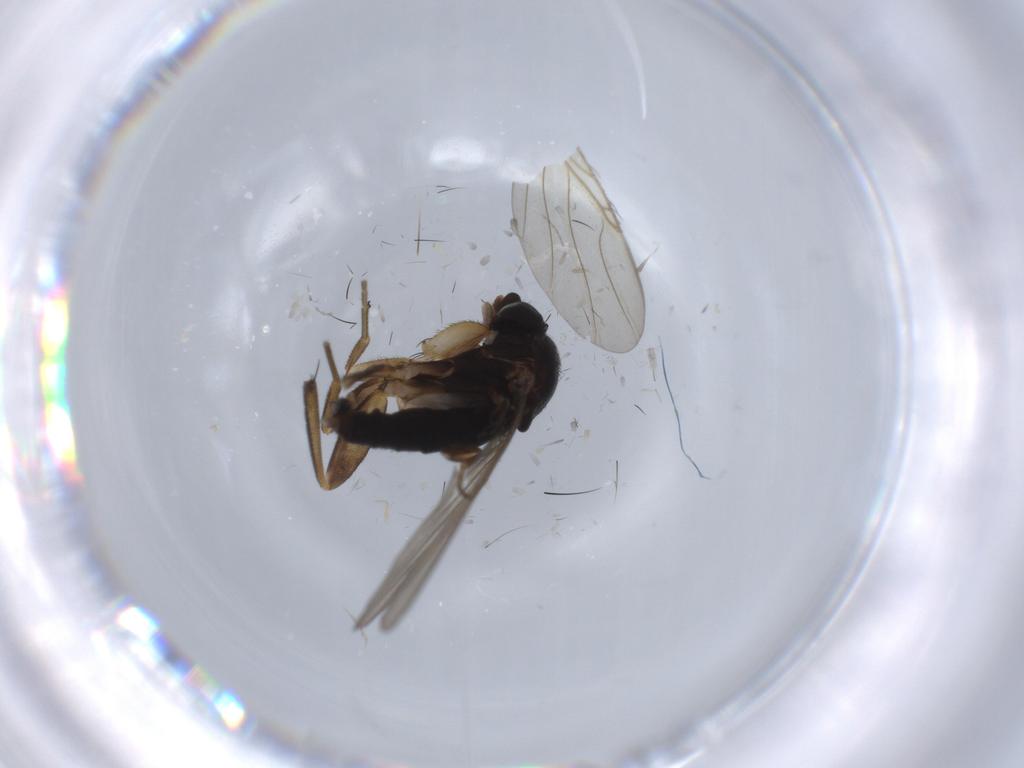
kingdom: Animalia
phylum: Arthropoda
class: Insecta
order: Diptera
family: Phoridae
